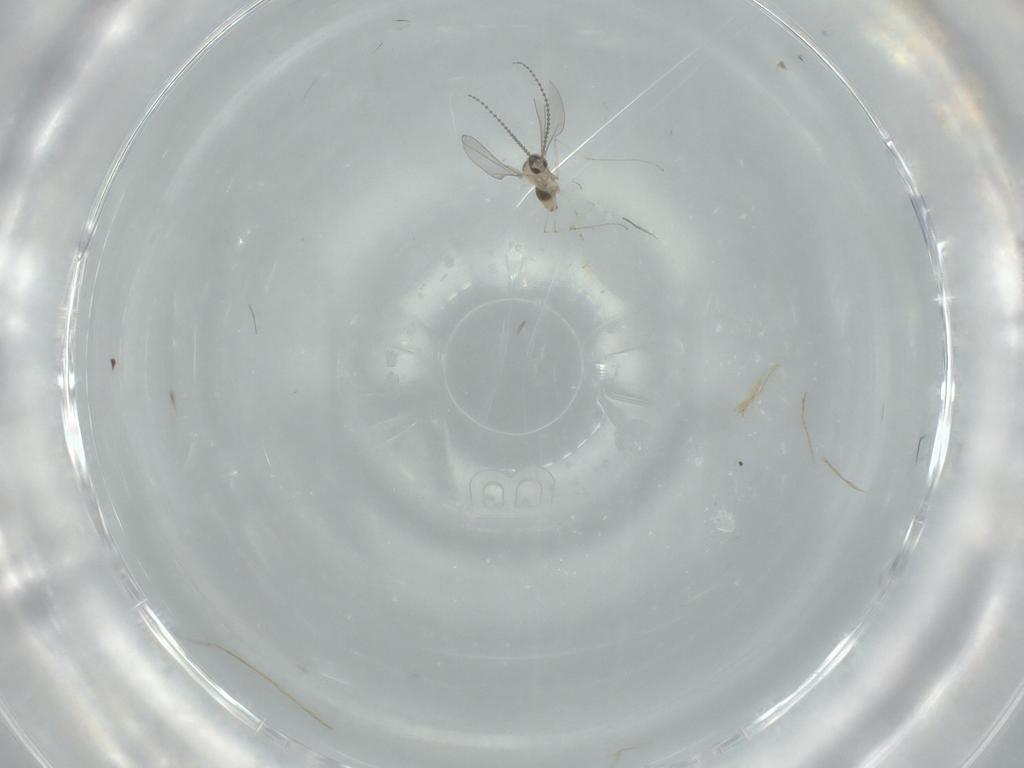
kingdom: Animalia
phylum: Arthropoda
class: Insecta
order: Diptera
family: Cecidomyiidae
